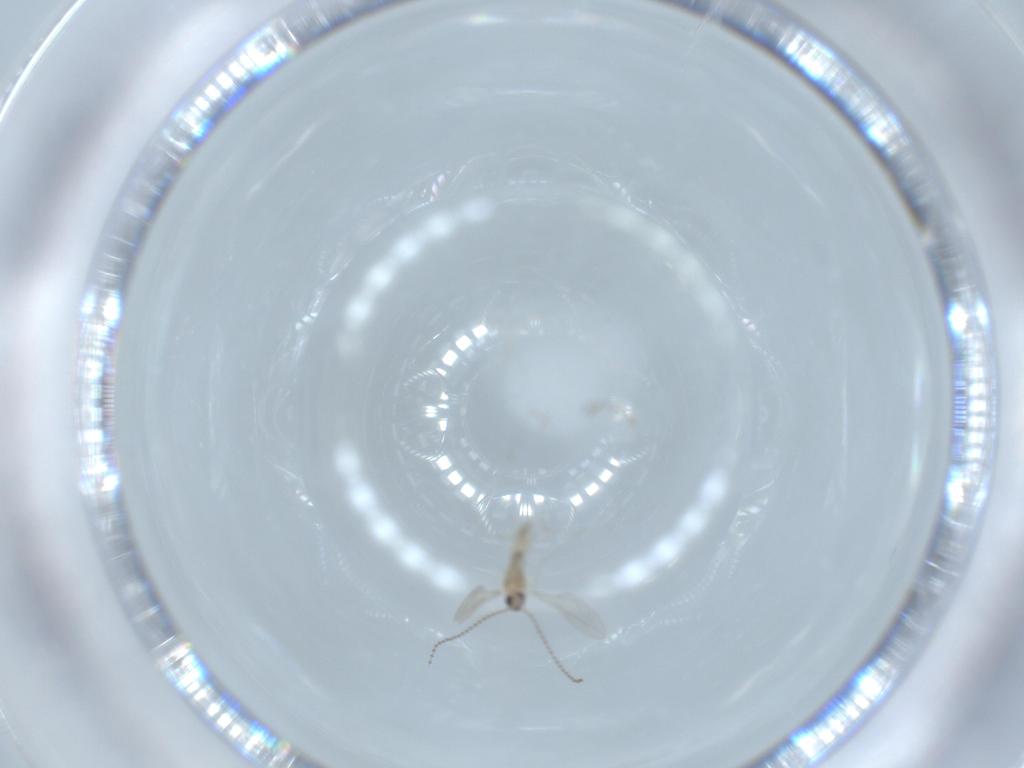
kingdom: Animalia
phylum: Arthropoda
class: Insecta
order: Diptera
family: Cecidomyiidae
